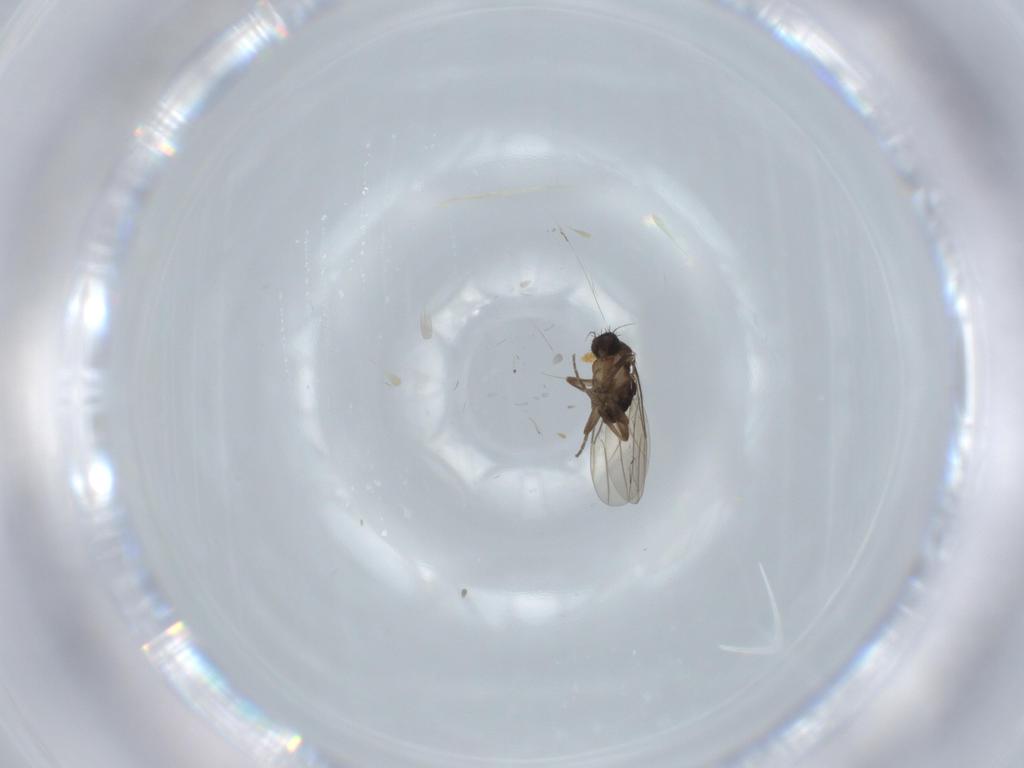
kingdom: Animalia
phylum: Arthropoda
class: Insecta
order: Diptera
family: Phoridae
